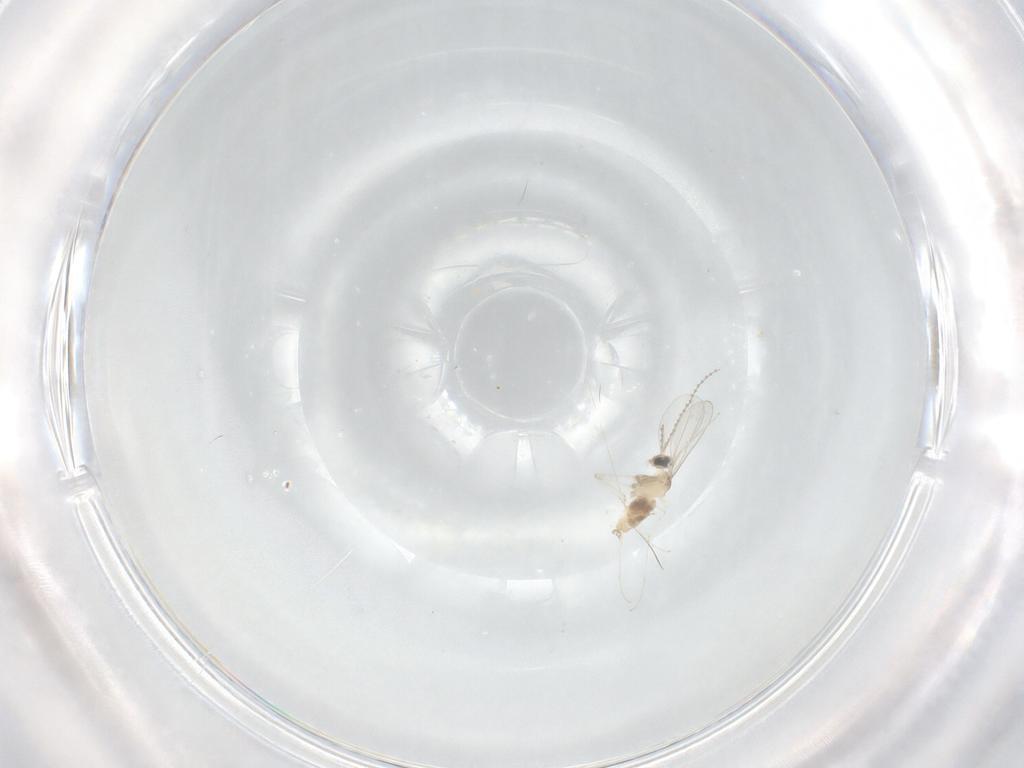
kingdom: Animalia
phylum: Arthropoda
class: Insecta
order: Diptera
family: Cecidomyiidae
